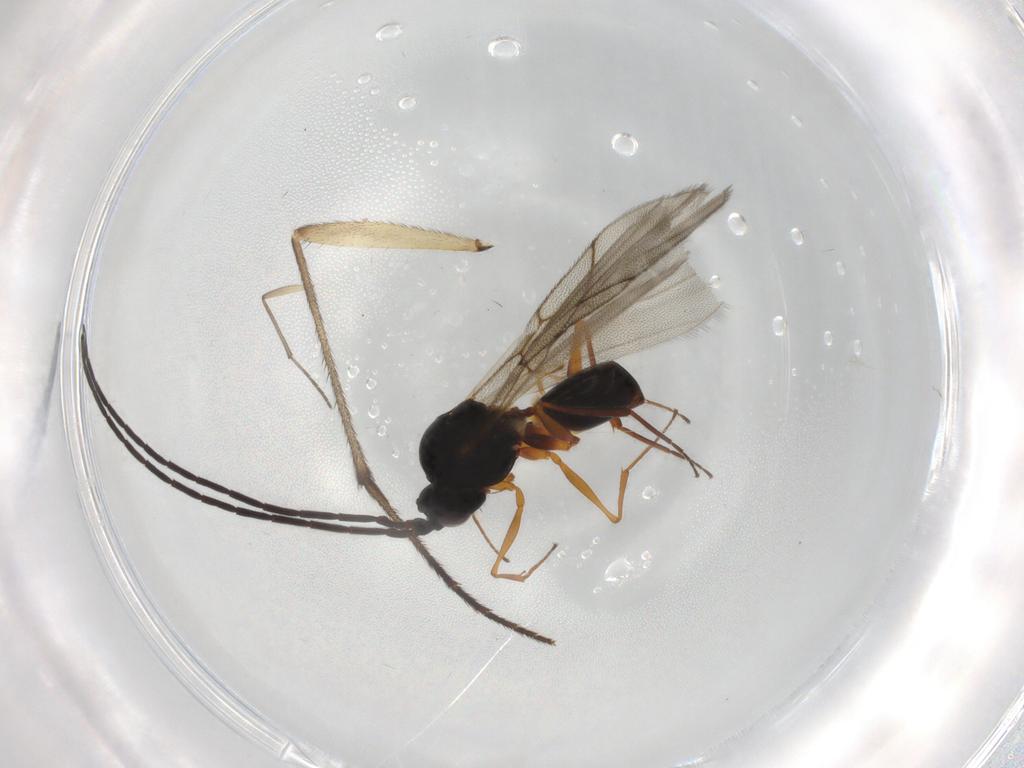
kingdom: Animalia
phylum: Arthropoda
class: Insecta
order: Hymenoptera
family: Figitidae
